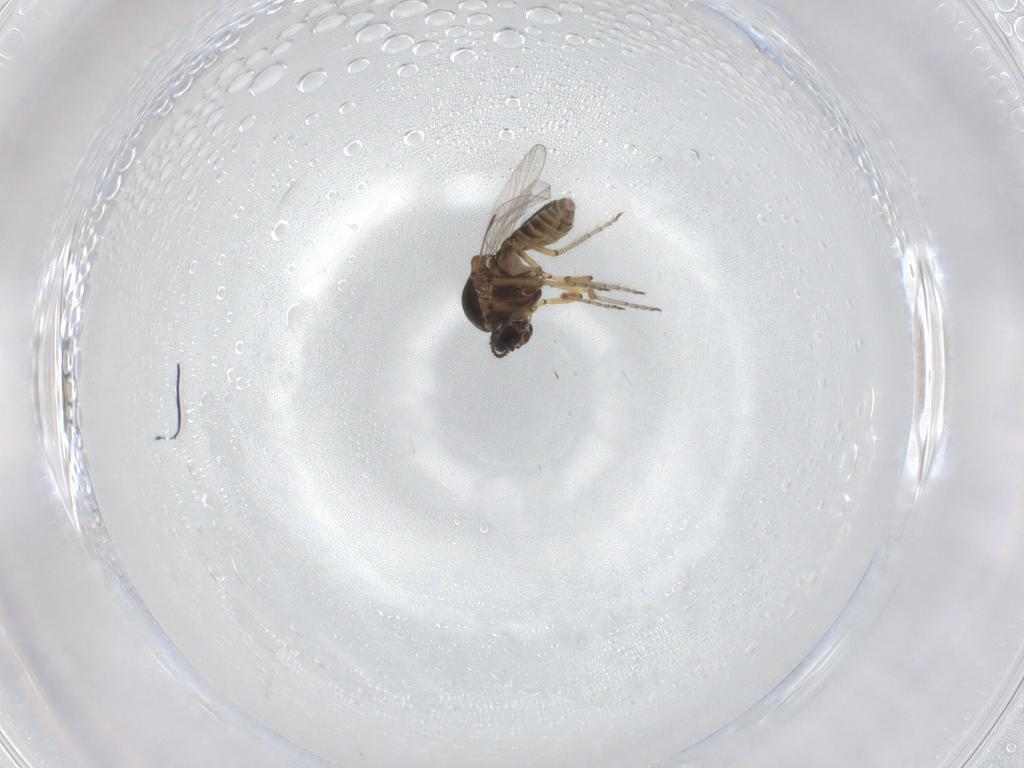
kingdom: Animalia
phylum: Arthropoda
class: Insecta
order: Diptera
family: Ceratopogonidae
